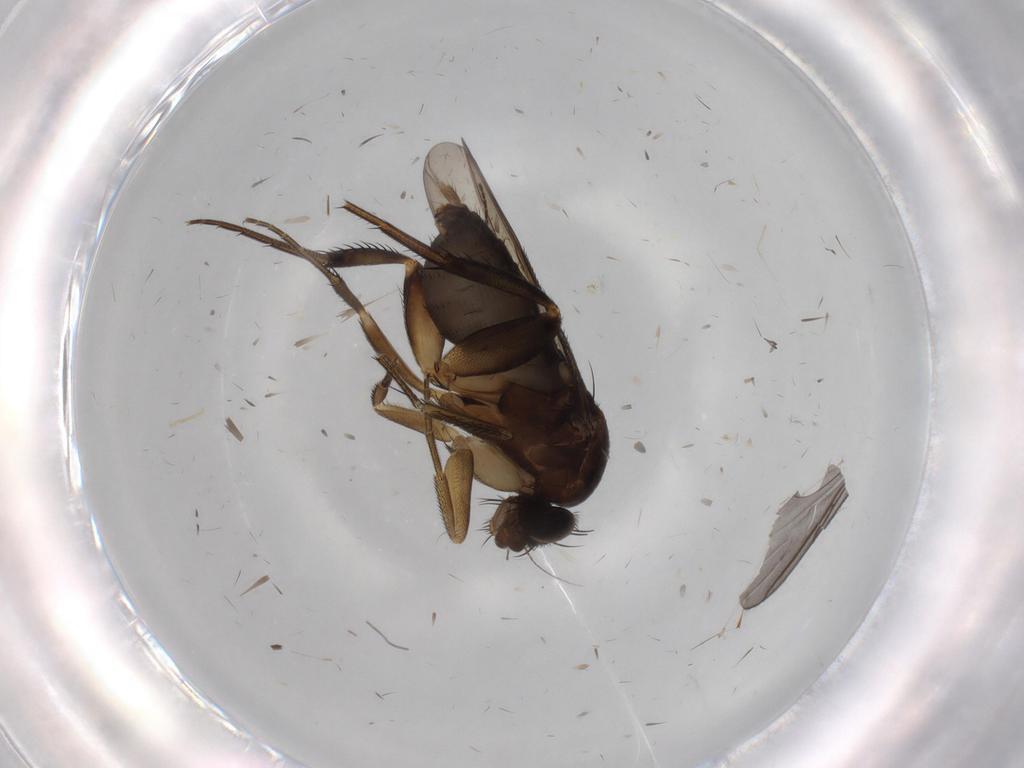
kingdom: Animalia
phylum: Arthropoda
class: Insecta
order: Diptera
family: Phoridae
